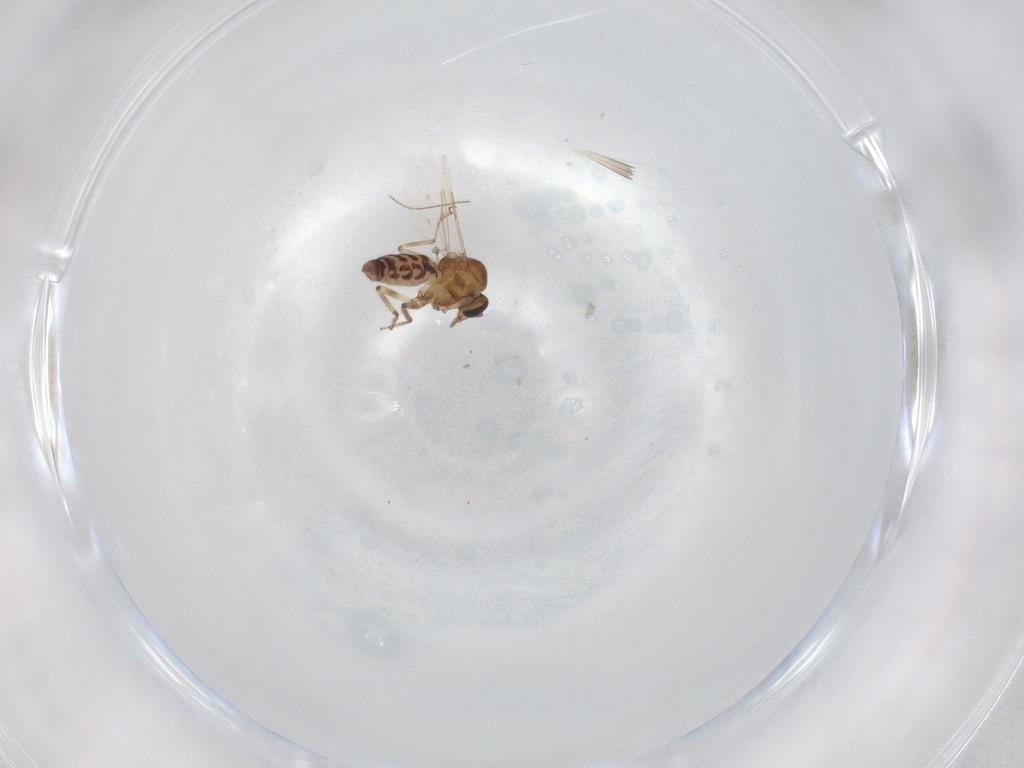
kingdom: Animalia
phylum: Arthropoda
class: Insecta
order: Diptera
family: Ceratopogonidae
